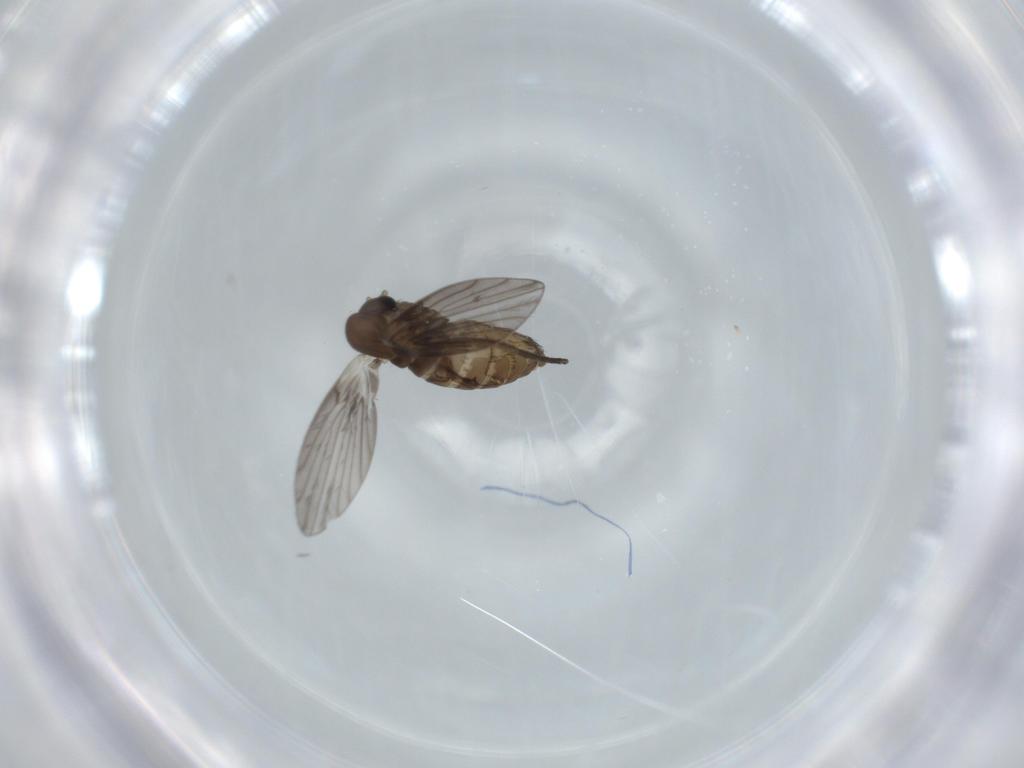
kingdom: Animalia
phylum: Arthropoda
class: Insecta
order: Diptera
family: Psychodidae
